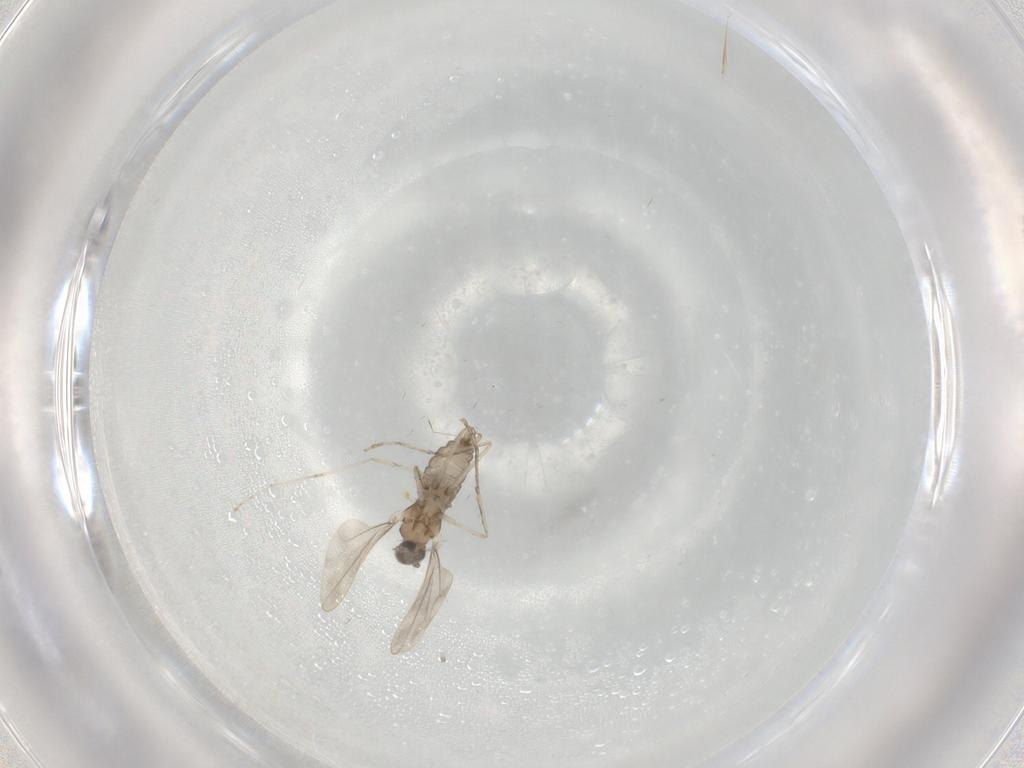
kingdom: Animalia
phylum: Arthropoda
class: Insecta
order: Diptera
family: Cecidomyiidae
